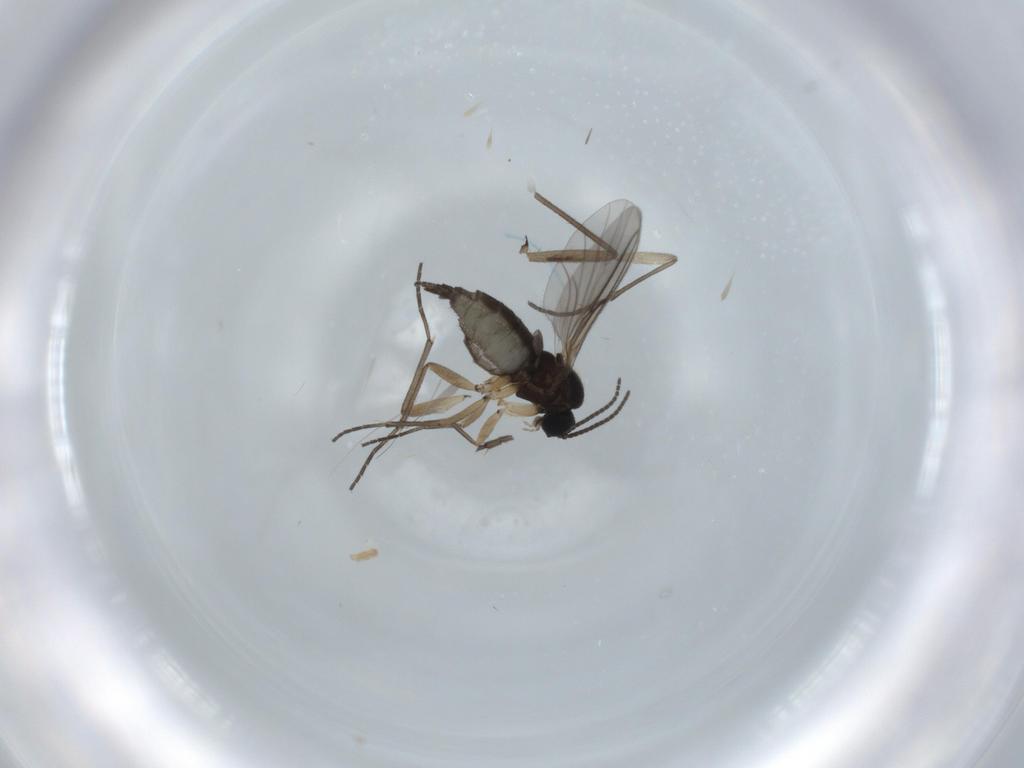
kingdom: Animalia
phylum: Arthropoda
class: Insecta
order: Diptera
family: Sciaridae
